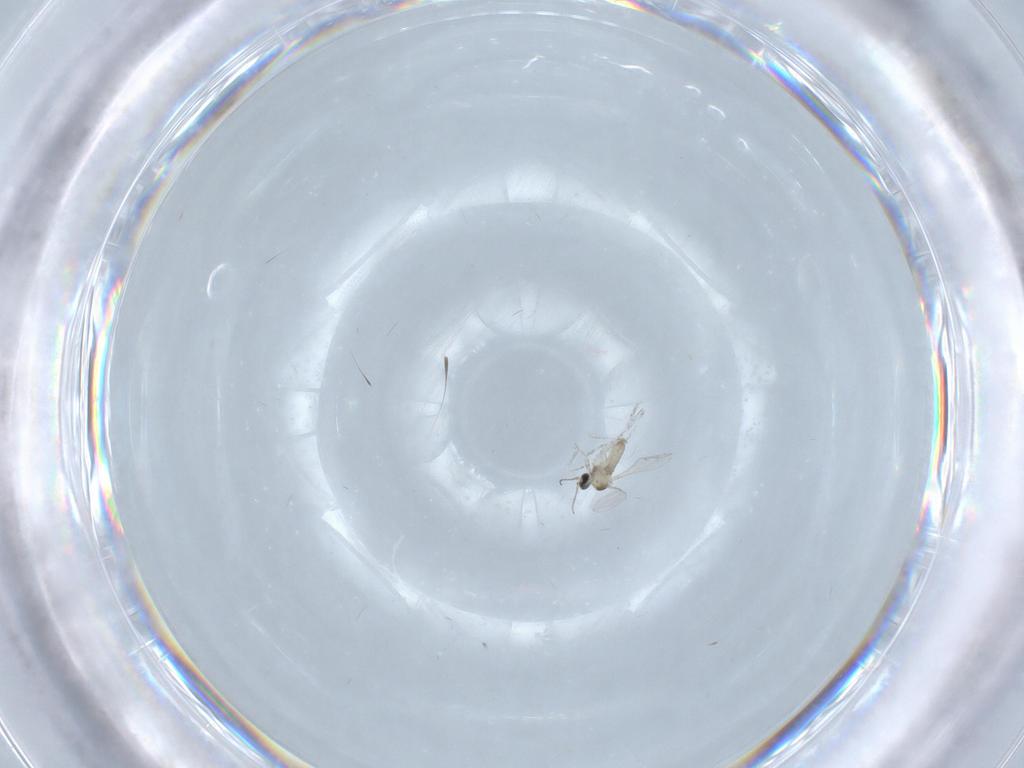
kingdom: Animalia
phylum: Arthropoda
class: Insecta
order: Diptera
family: Phoridae
